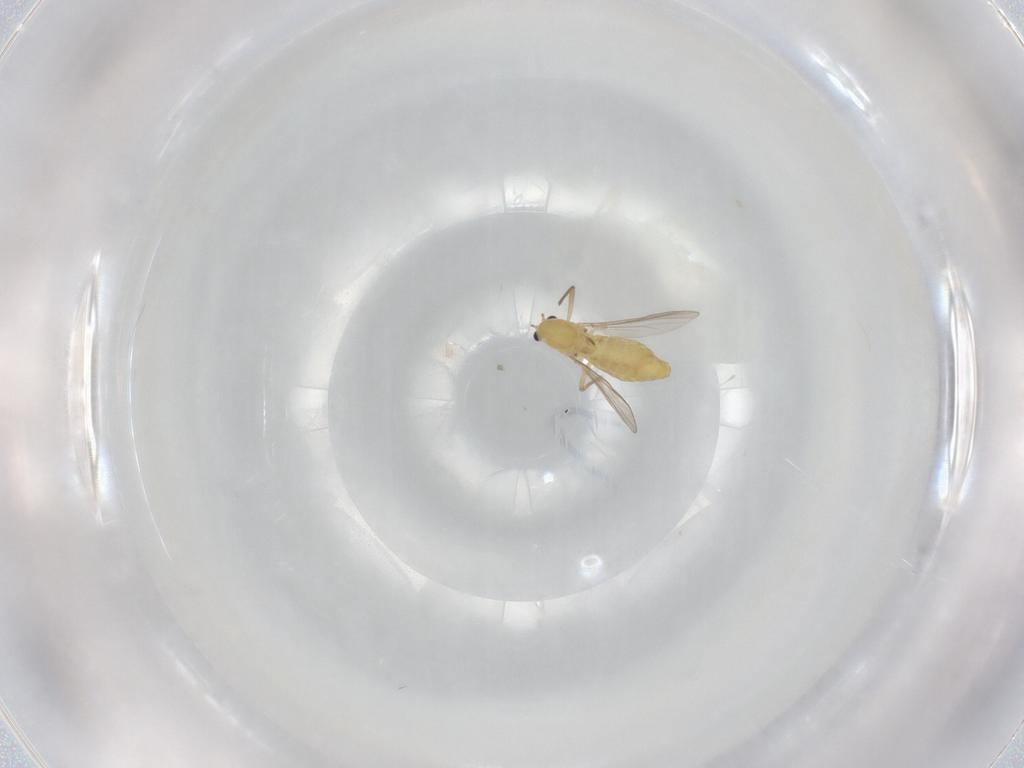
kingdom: Animalia
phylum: Arthropoda
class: Insecta
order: Diptera
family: Chironomidae
